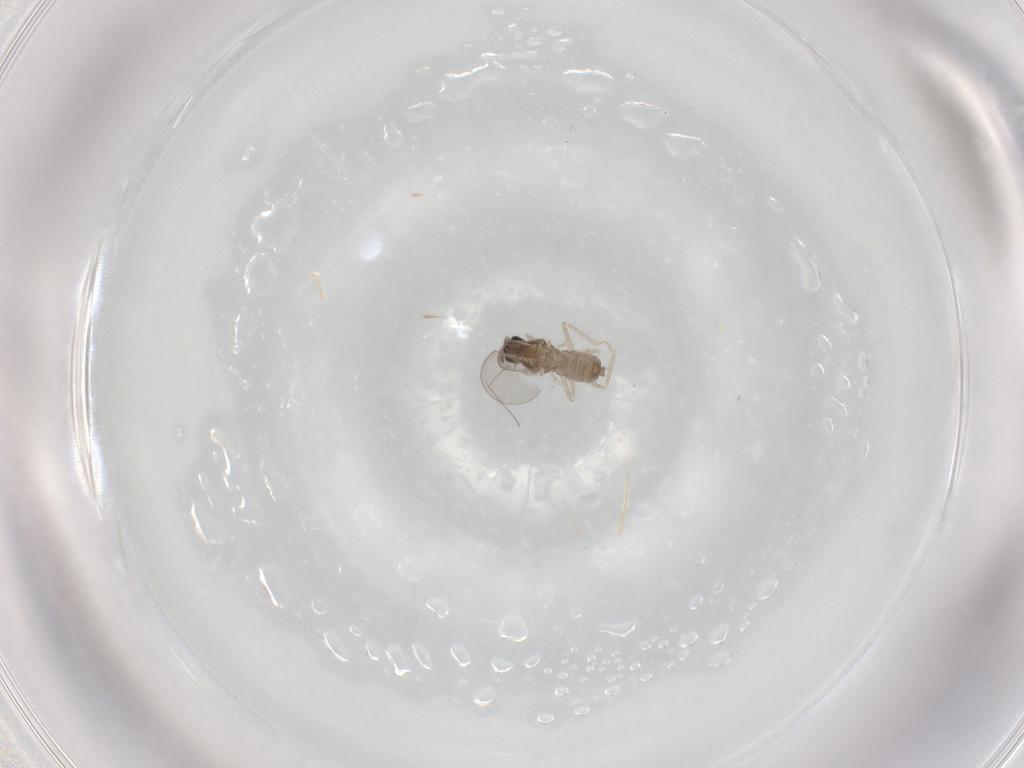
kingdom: Animalia
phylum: Arthropoda
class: Insecta
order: Diptera
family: Cecidomyiidae
